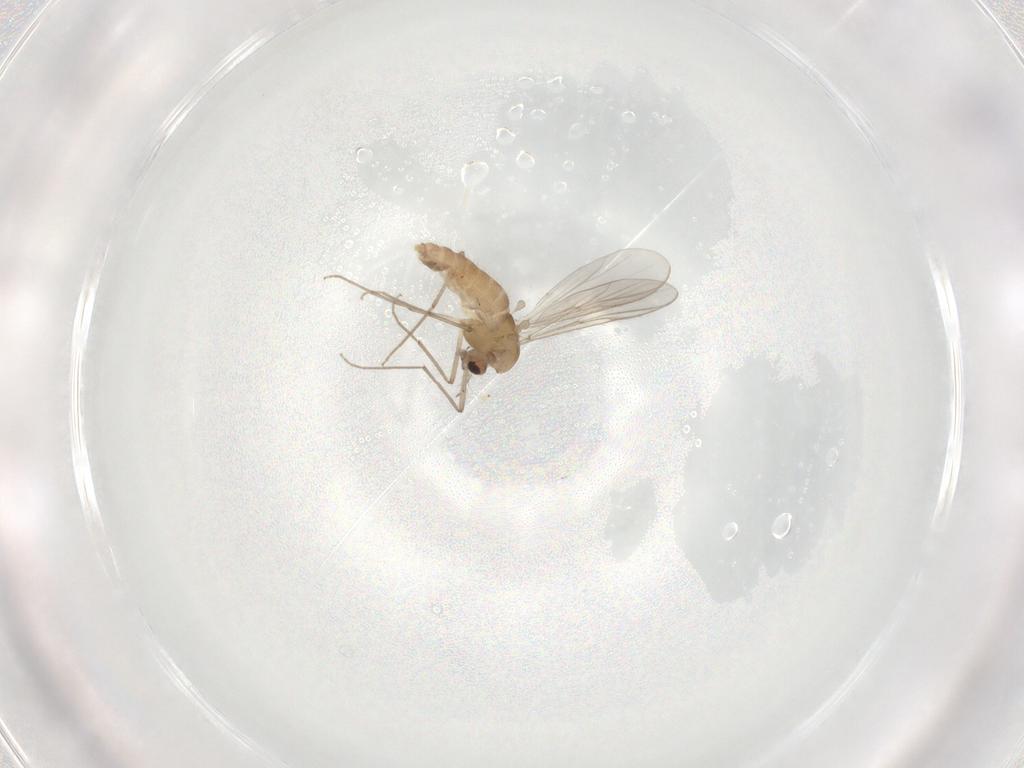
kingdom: Animalia
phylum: Arthropoda
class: Insecta
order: Diptera
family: Chironomidae
